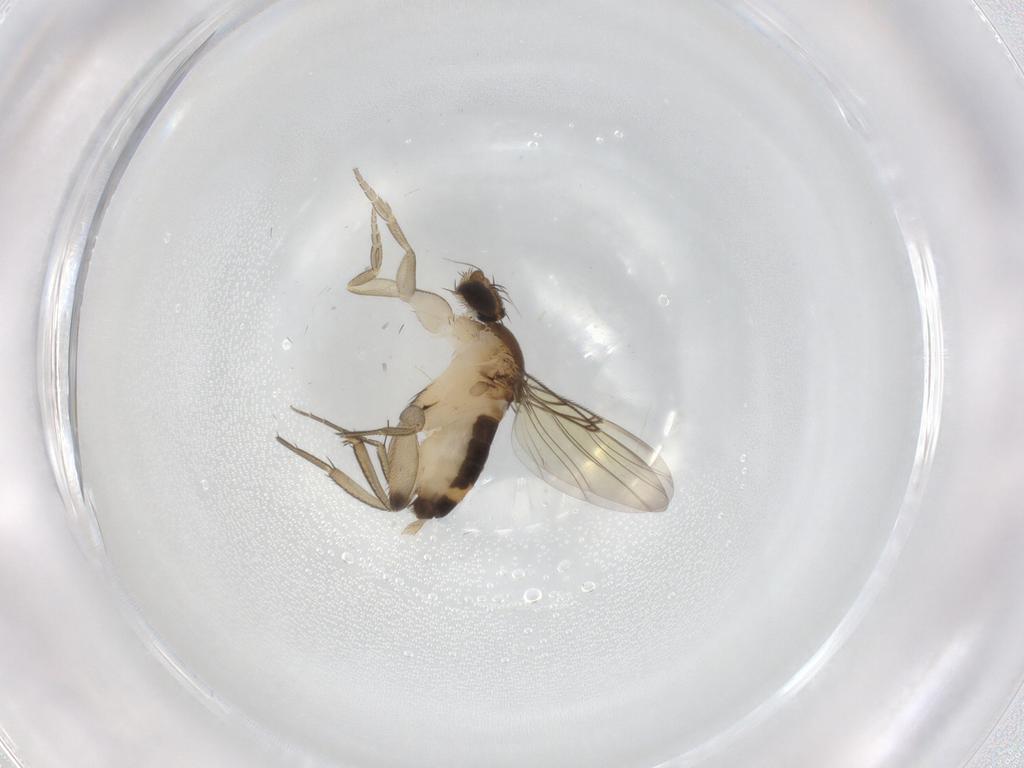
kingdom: Animalia
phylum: Arthropoda
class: Insecta
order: Diptera
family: Phoridae
